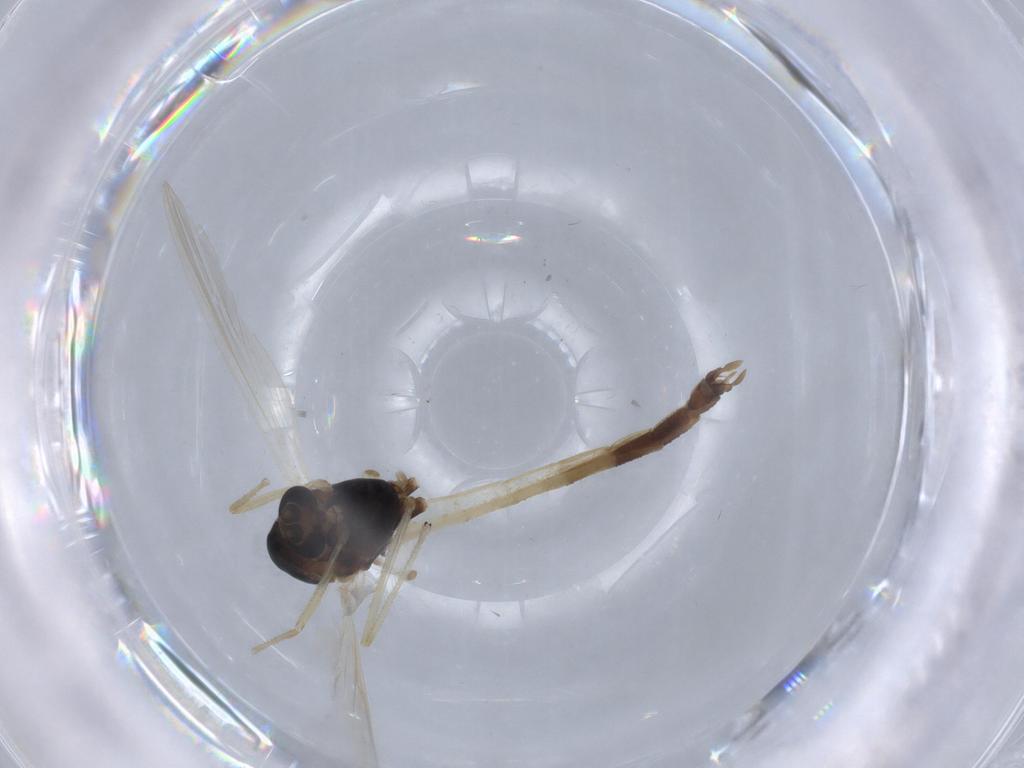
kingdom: Animalia
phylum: Arthropoda
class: Insecta
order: Diptera
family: Chironomidae
